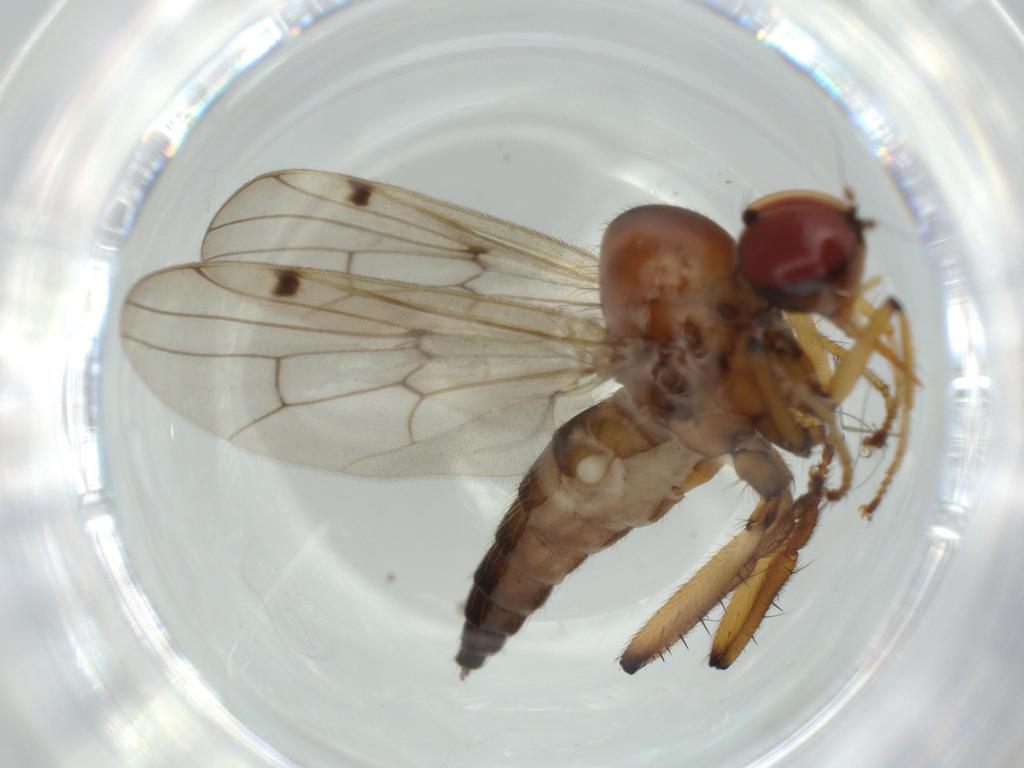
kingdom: Animalia
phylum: Arthropoda
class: Insecta
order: Diptera
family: Hybotidae
